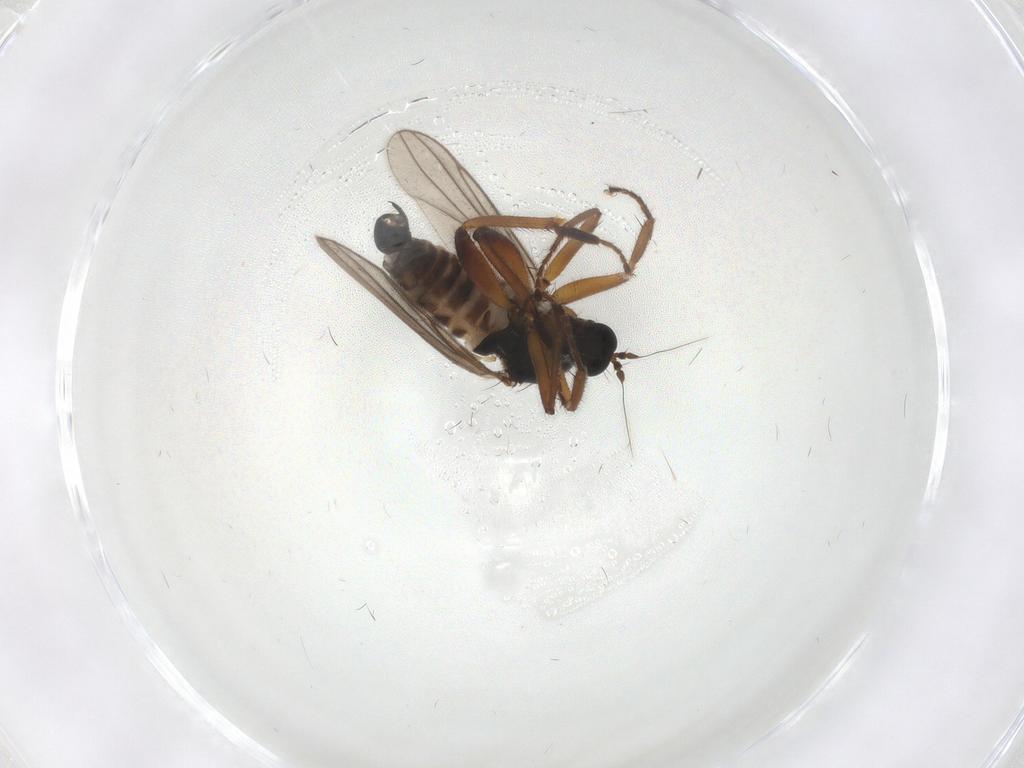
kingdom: Animalia
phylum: Arthropoda
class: Insecta
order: Diptera
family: Hybotidae
